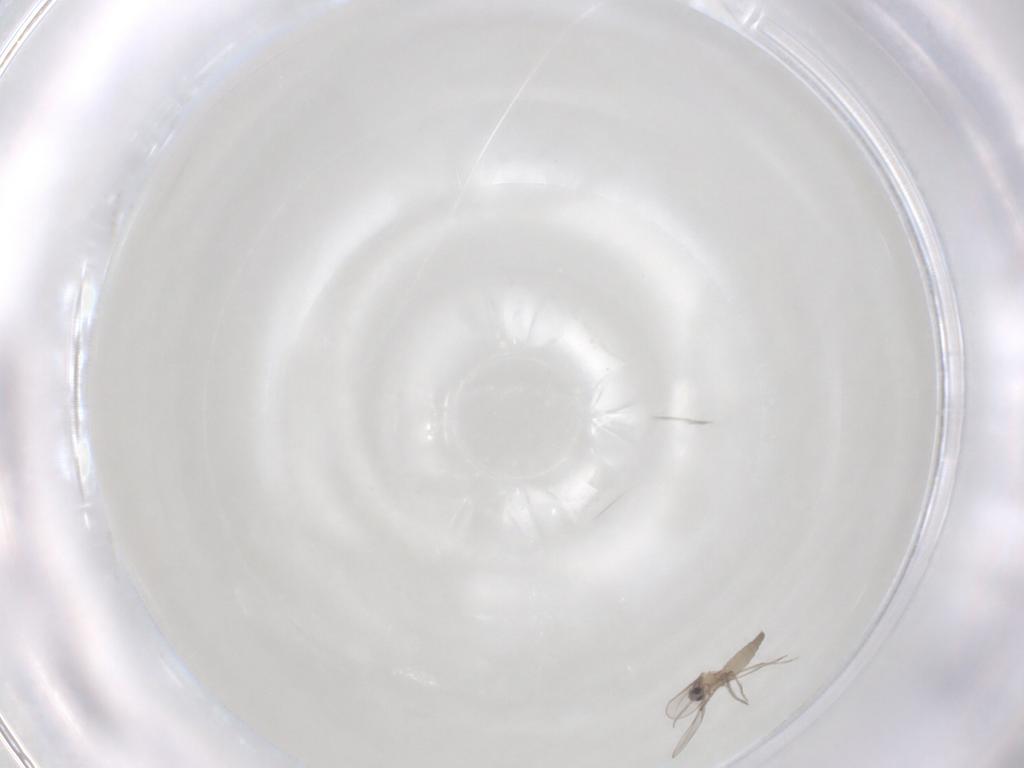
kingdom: Animalia
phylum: Arthropoda
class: Insecta
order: Diptera
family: Cecidomyiidae
